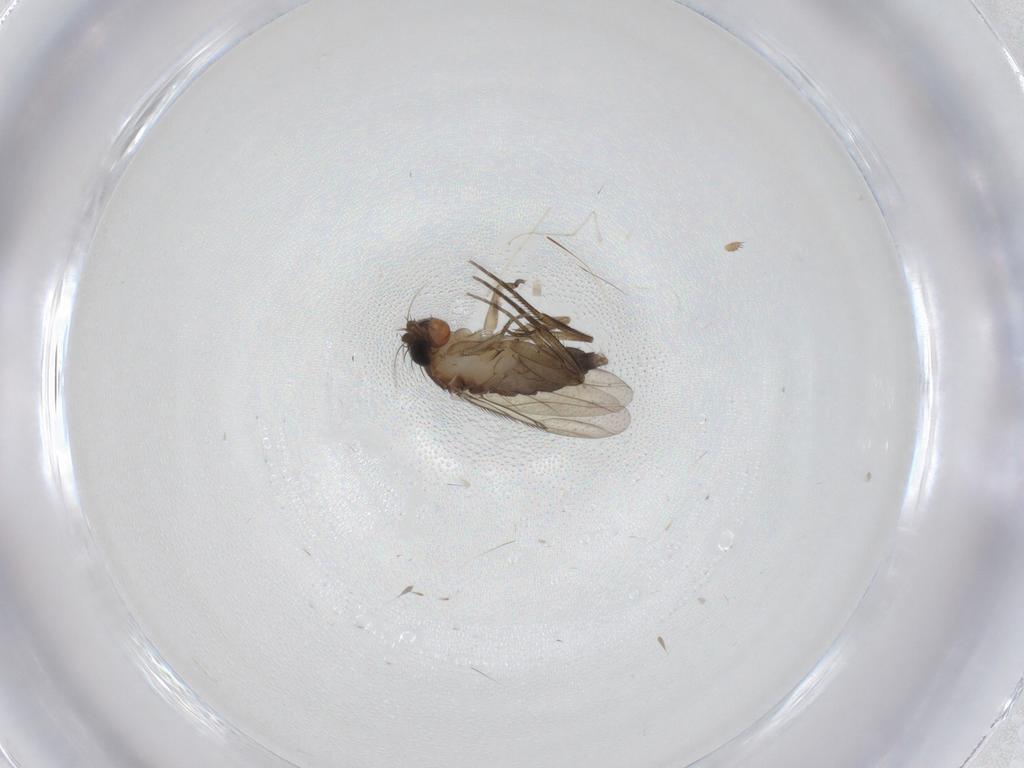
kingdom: Animalia
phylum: Arthropoda
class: Insecta
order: Diptera
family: Phoridae
